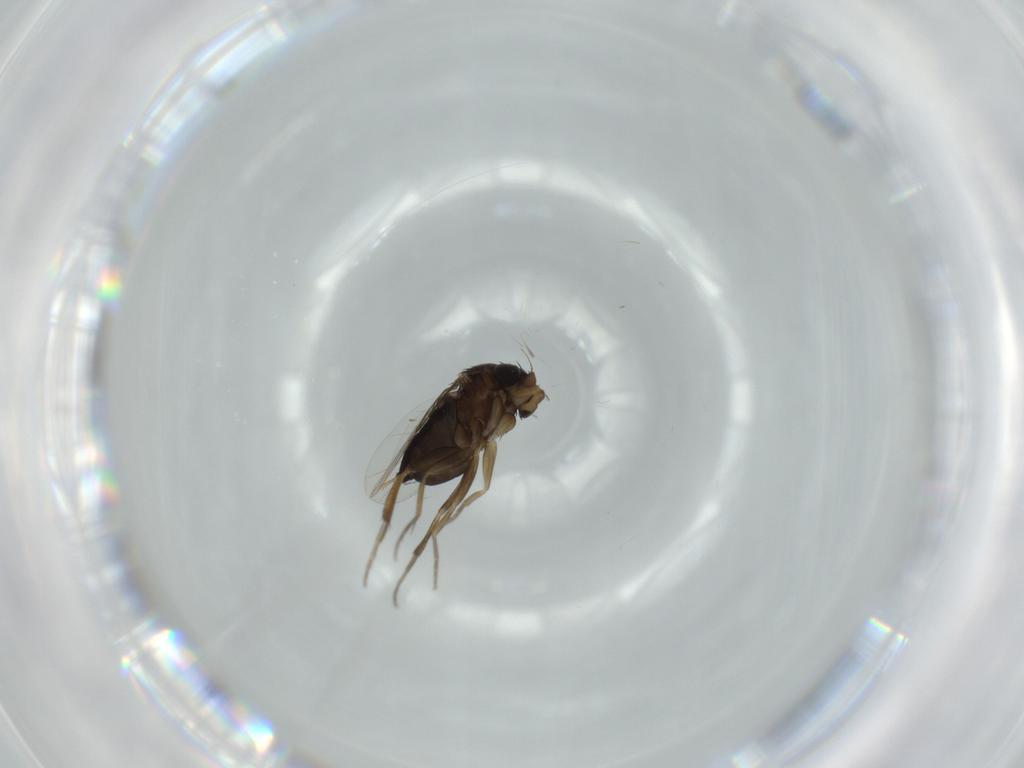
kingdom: Animalia
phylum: Arthropoda
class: Insecta
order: Diptera
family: Phoridae
